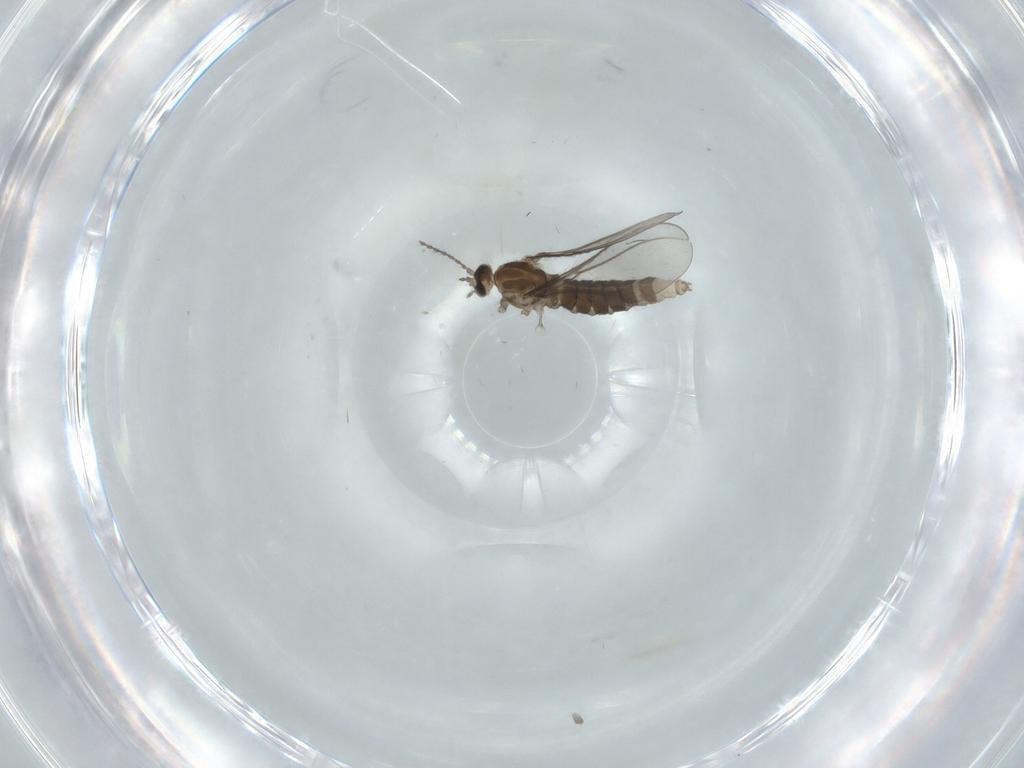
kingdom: Animalia
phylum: Arthropoda
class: Insecta
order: Diptera
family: Cecidomyiidae
